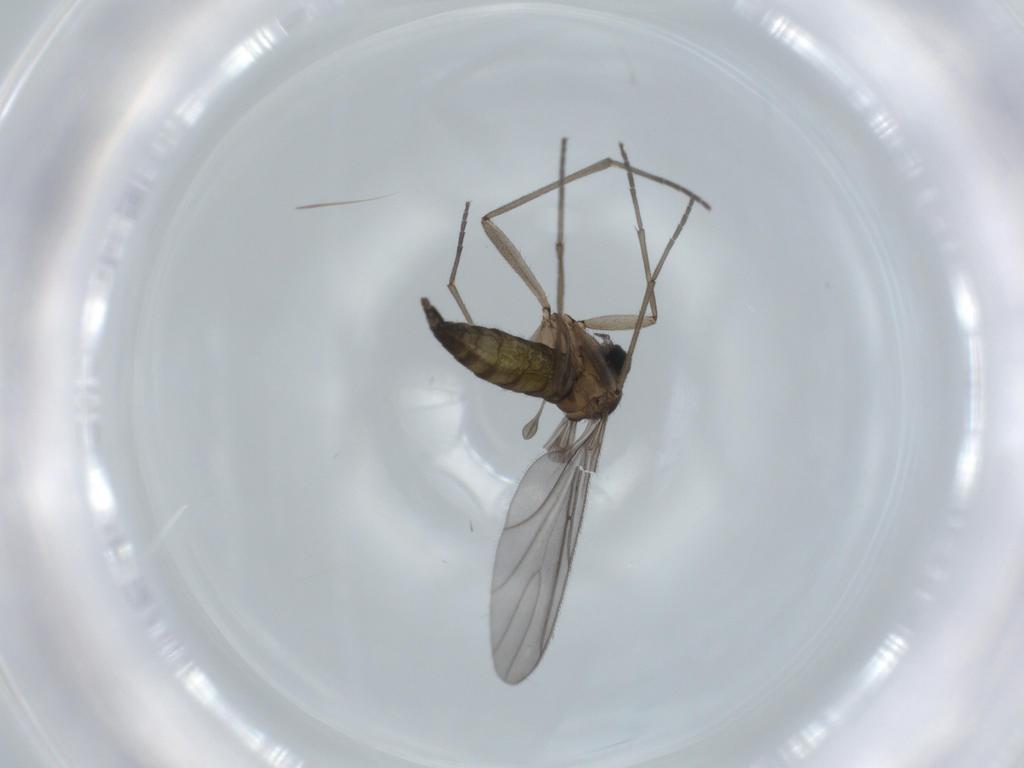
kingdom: Animalia
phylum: Arthropoda
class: Insecta
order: Diptera
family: Sciaridae
